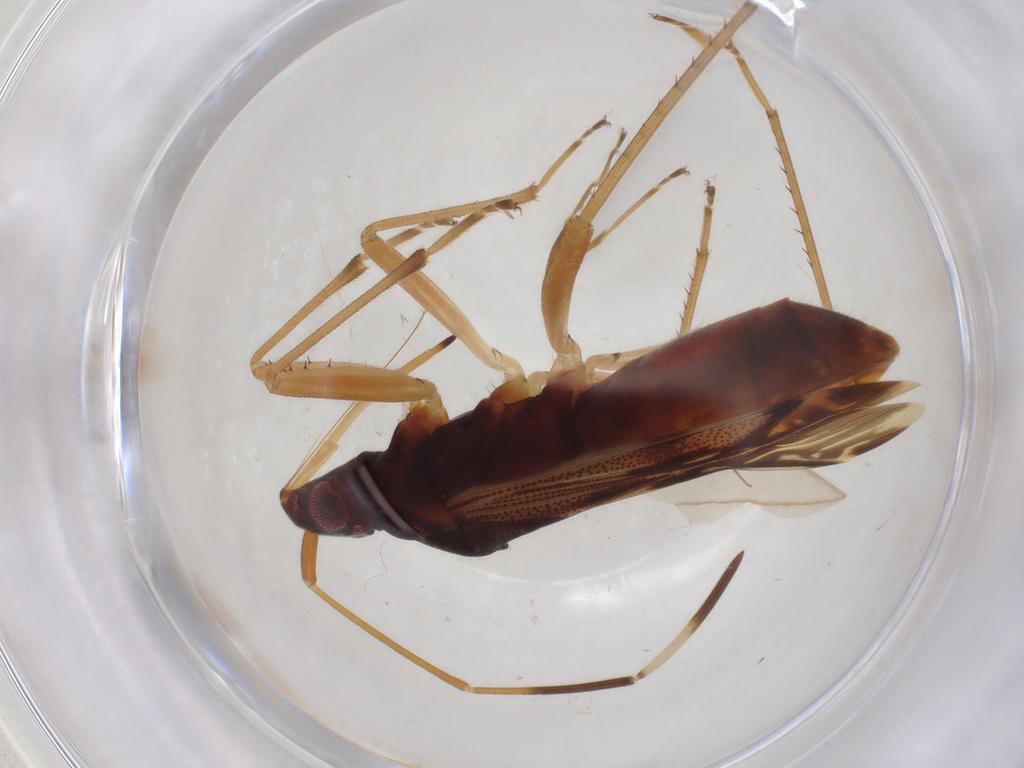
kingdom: Animalia
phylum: Arthropoda
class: Insecta
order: Hemiptera
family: Rhyparochromidae
